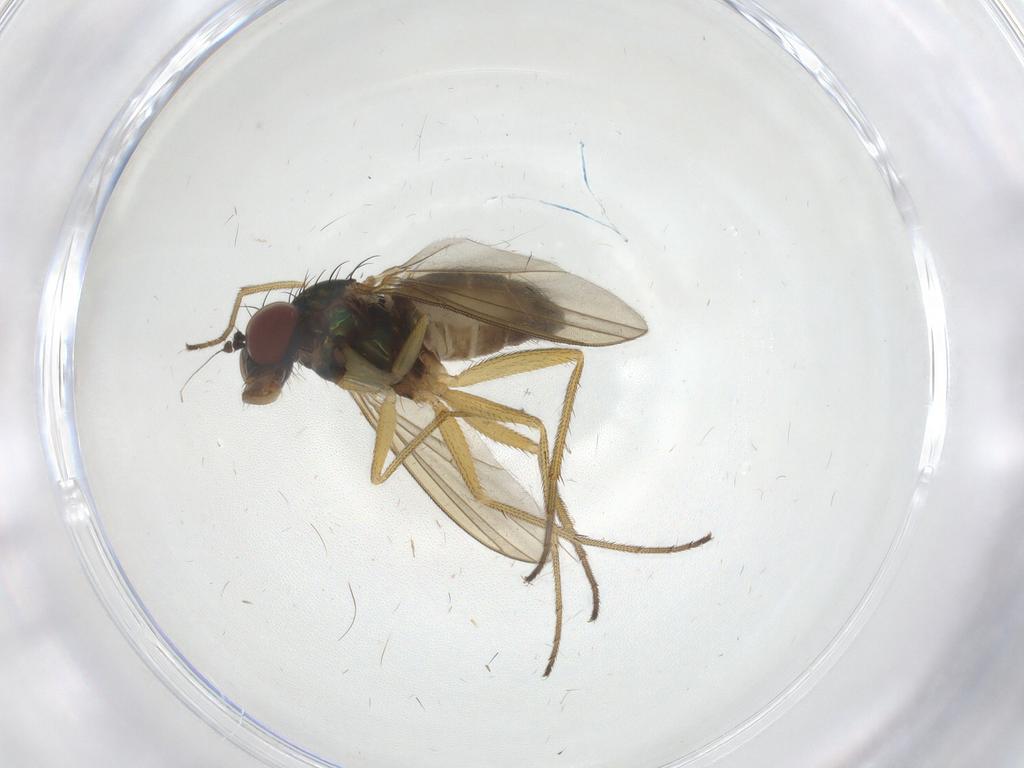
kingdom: Animalia
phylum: Arthropoda
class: Insecta
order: Diptera
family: Dolichopodidae
